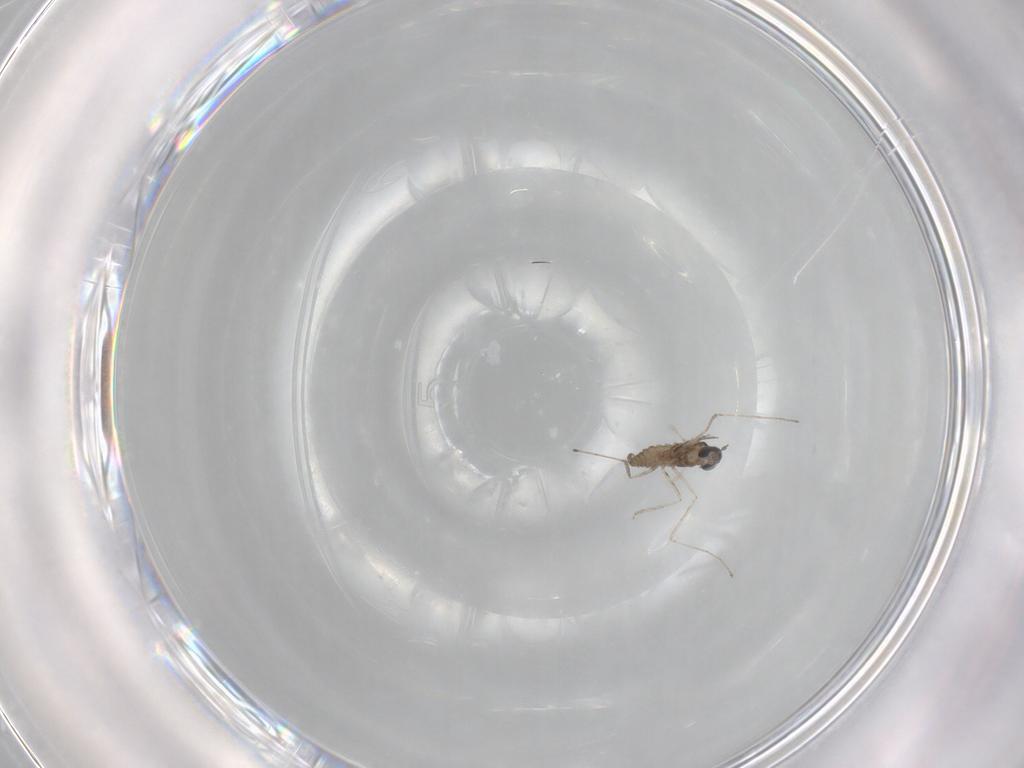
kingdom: Animalia
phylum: Arthropoda
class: Insecta
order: Diptera
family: Cecidomyiidae
